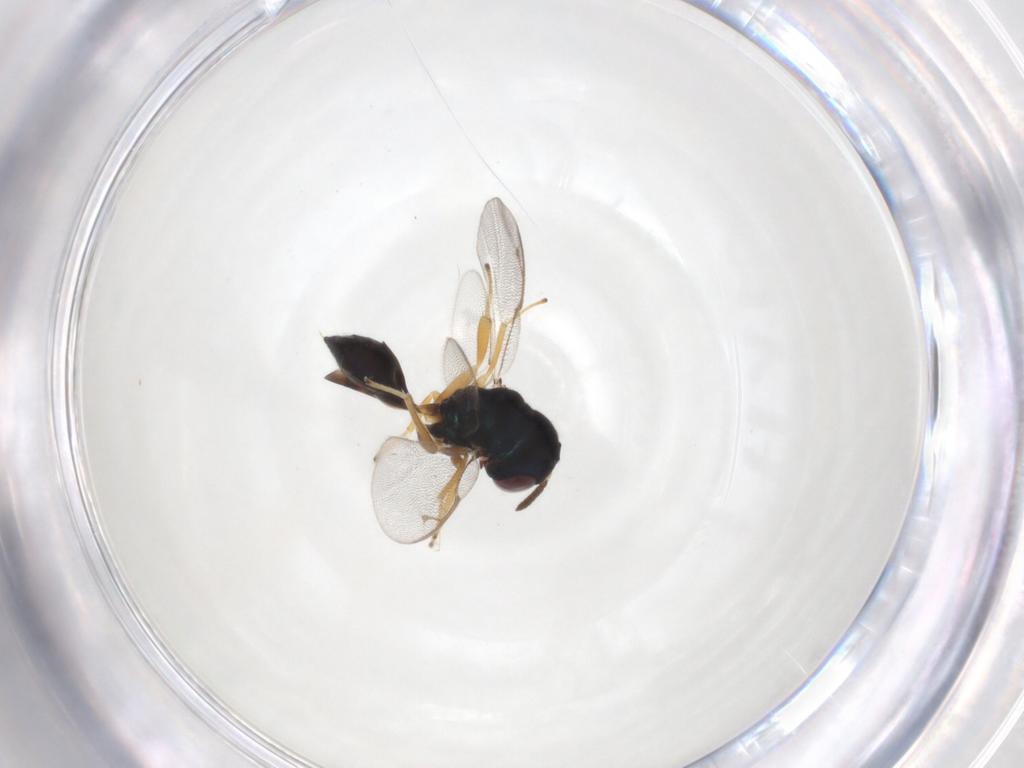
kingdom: Animalia
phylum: Arthropoda
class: Insecta
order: Hymenoptera
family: Pteromalidae
